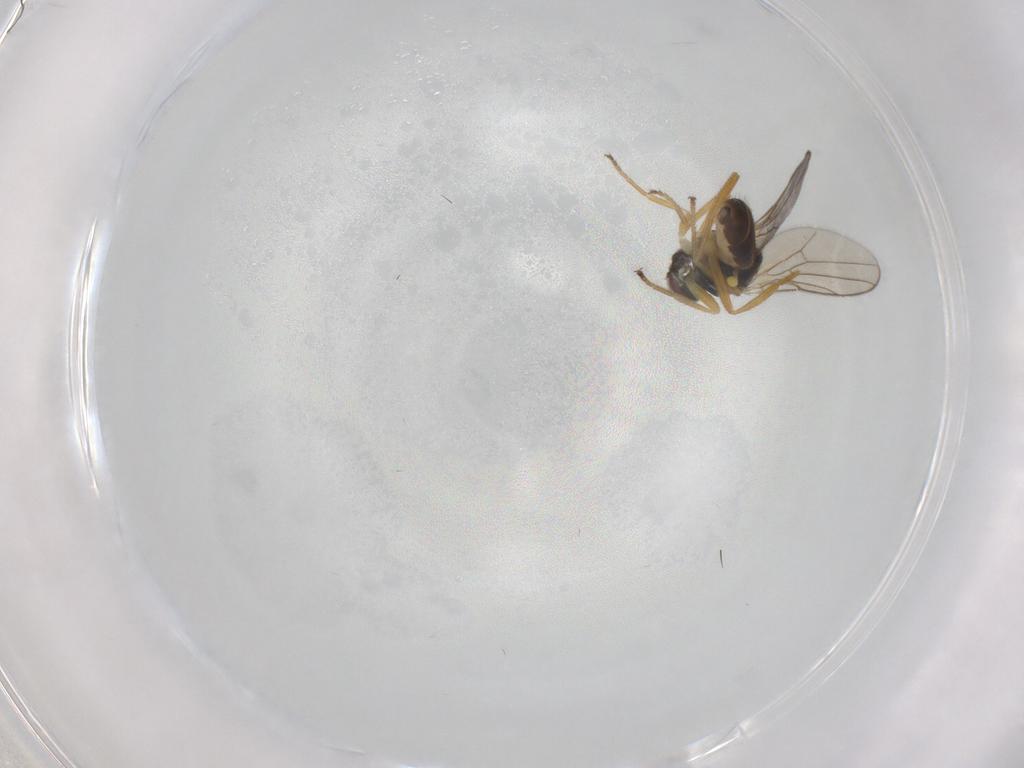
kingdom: Animalia
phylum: Arthropoda
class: Insecta
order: Diptera
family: Chloropidae
